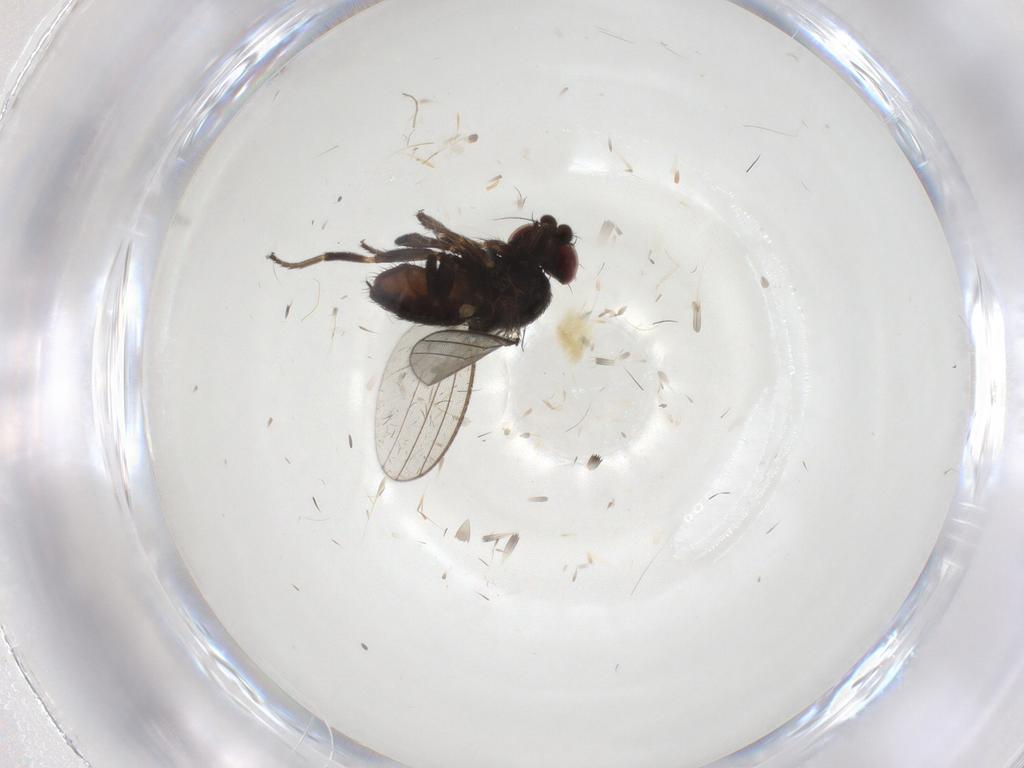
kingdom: Animalia
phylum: Arthropoda
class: Insecta
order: Diptera
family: Milichiidae
